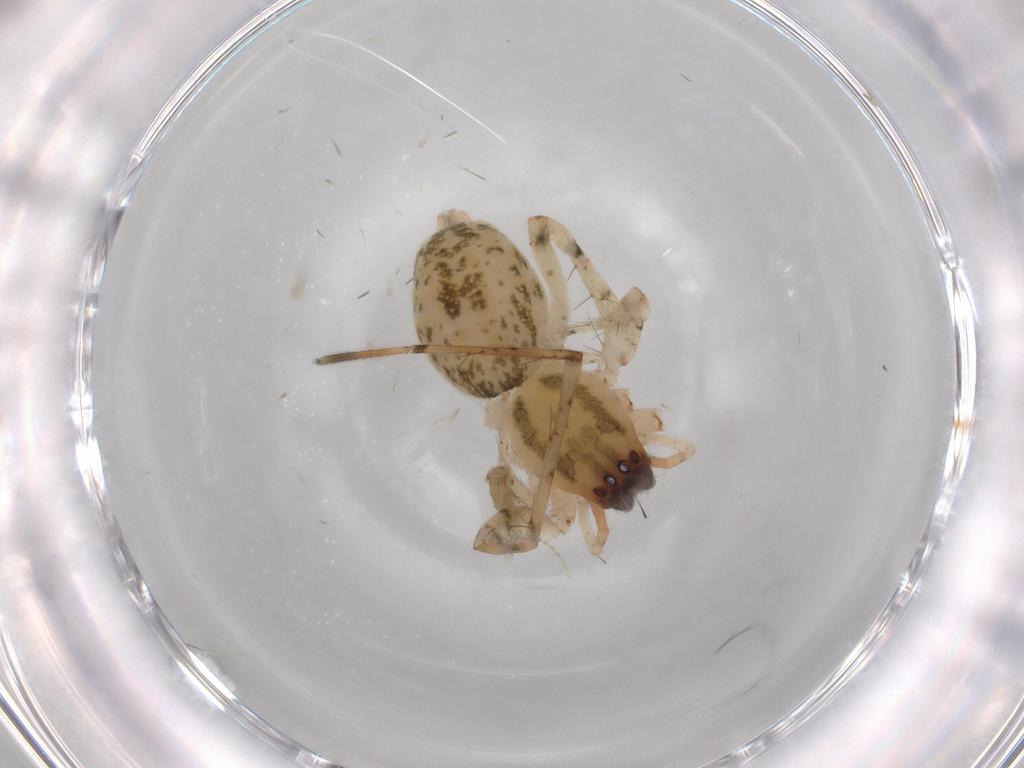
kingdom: Animalia
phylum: Arthropoda
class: Arachnida
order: Araneae
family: Anyphaenidae
